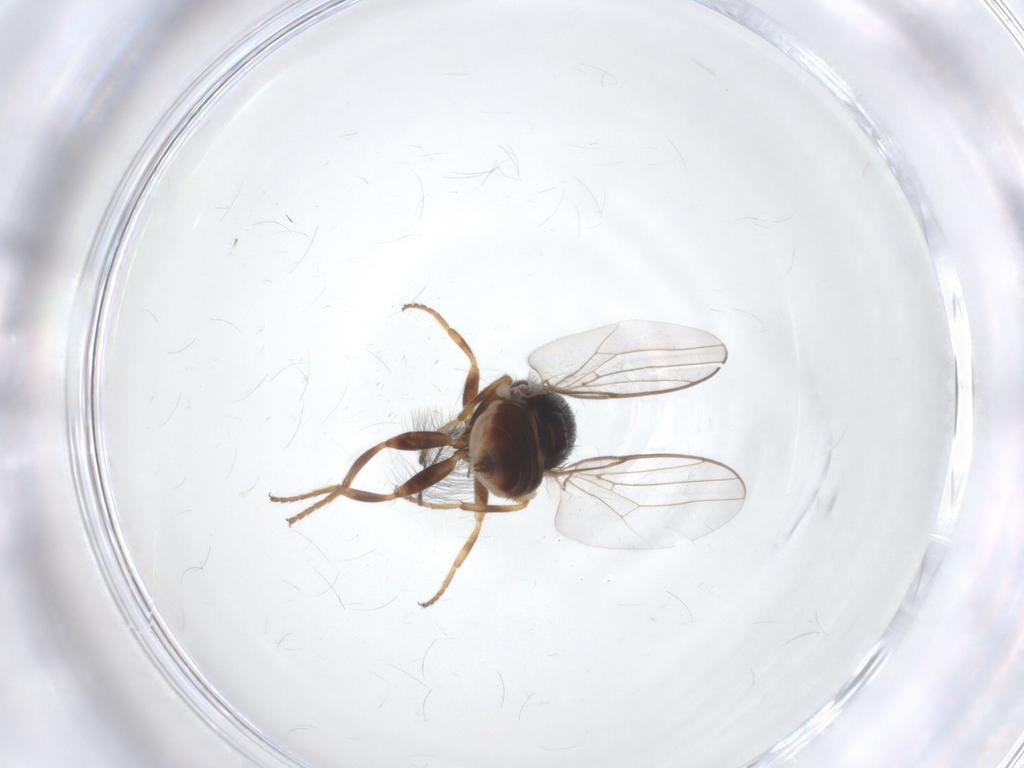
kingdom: Animalia
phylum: Arthropoda
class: Insecta
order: Diptera
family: Chloropidae
